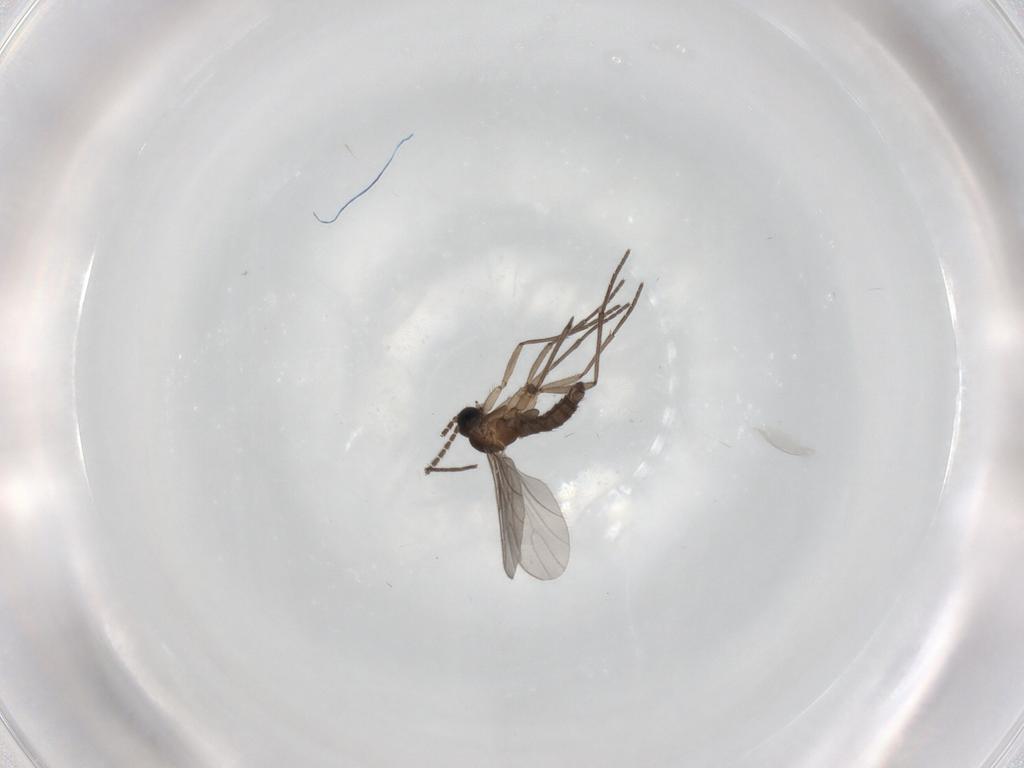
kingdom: Animalia
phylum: Arthropoda
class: Insecta
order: Diptera
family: Sciaridae
